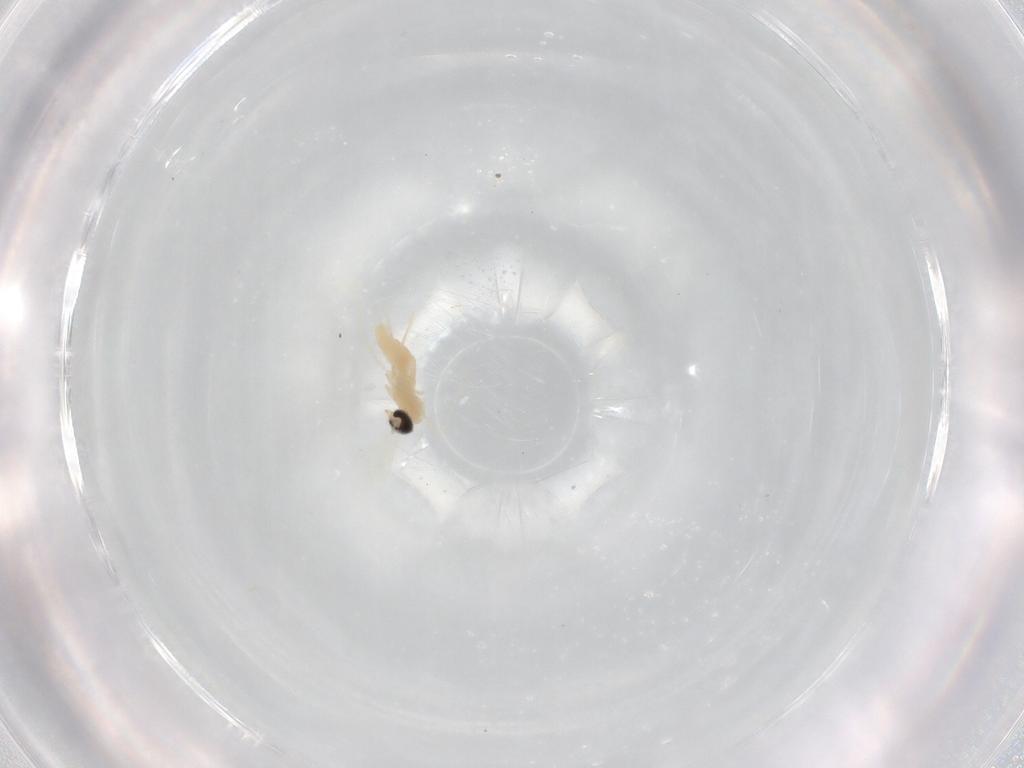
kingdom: Animalia
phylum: Arthropoda
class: Insecta
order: Diptera
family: Cecidomyiidae
